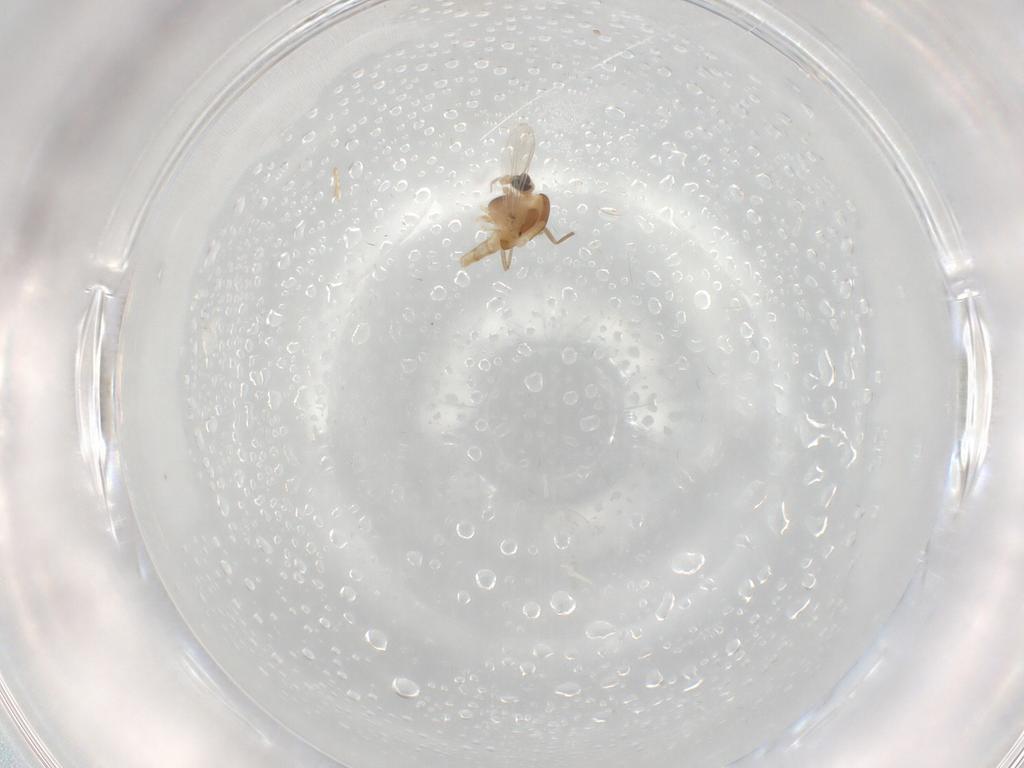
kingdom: Animalia
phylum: Arthropoda
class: Insecta
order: Diptera
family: Chironomidae
